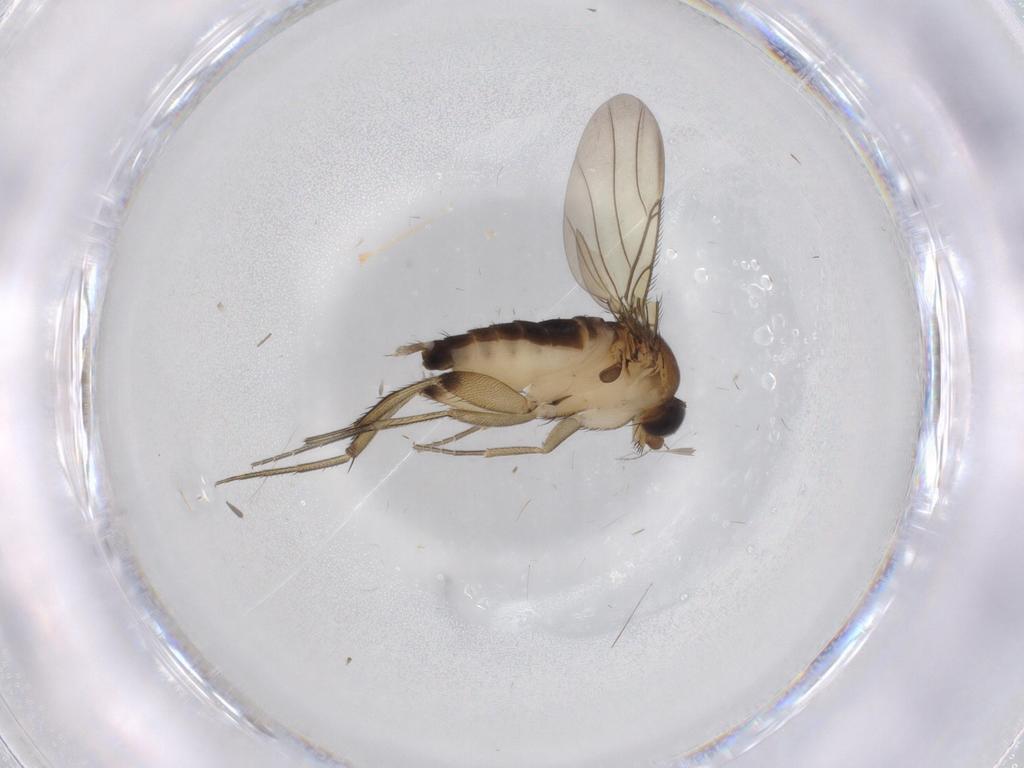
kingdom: Animalia
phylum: Arthropoda
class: Insecta
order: Diptera
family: Phoridae
